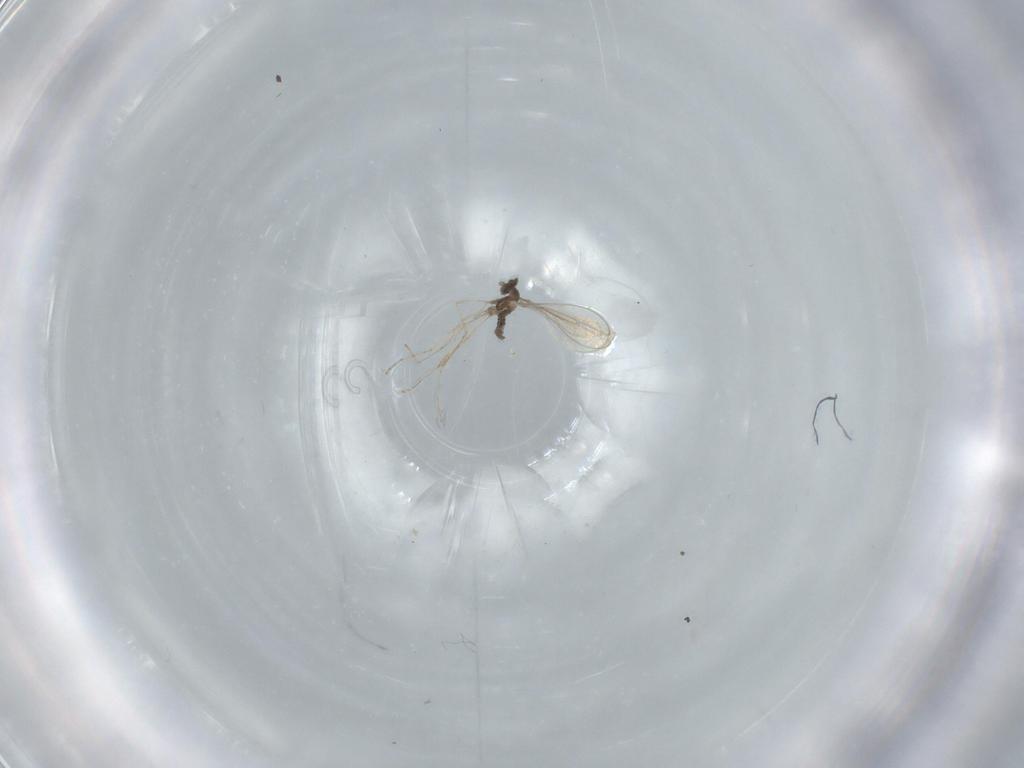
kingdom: Animalia
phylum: Arthropoda
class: Insecta
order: Diptera
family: Cecidomyiidae
